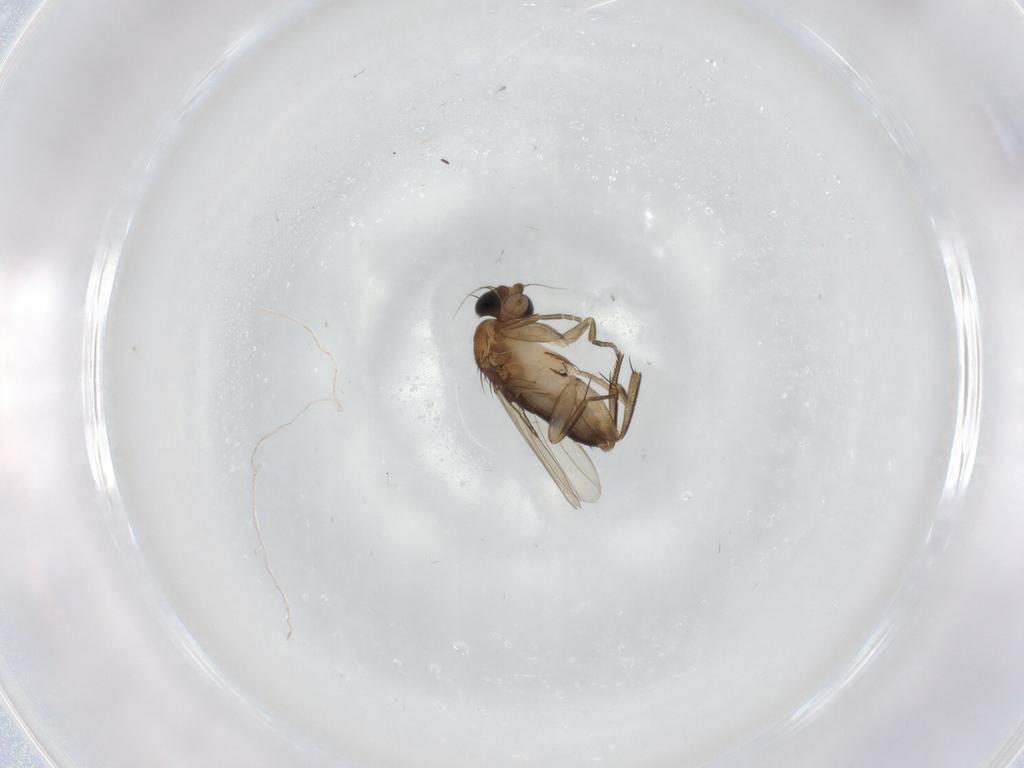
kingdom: Animalia
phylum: Arthropoda
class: Insecta
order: Diptera
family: Phoridae
